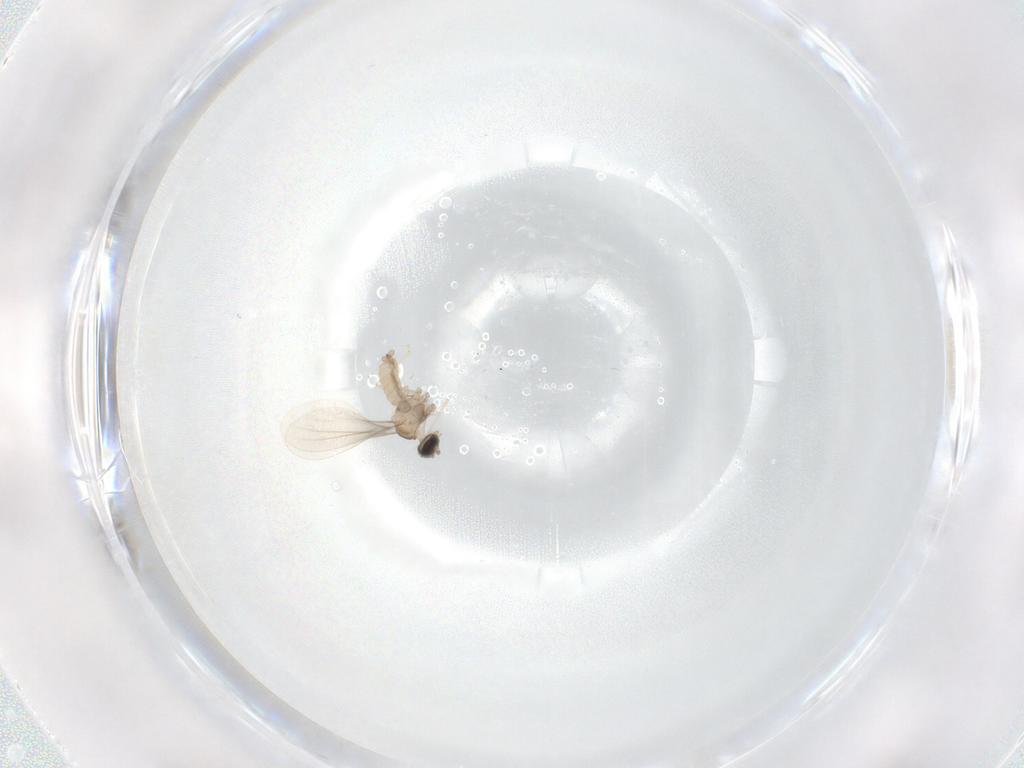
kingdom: Animalia
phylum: Arthropoda
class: Insecta
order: Diptera
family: Cecidomyiidae
